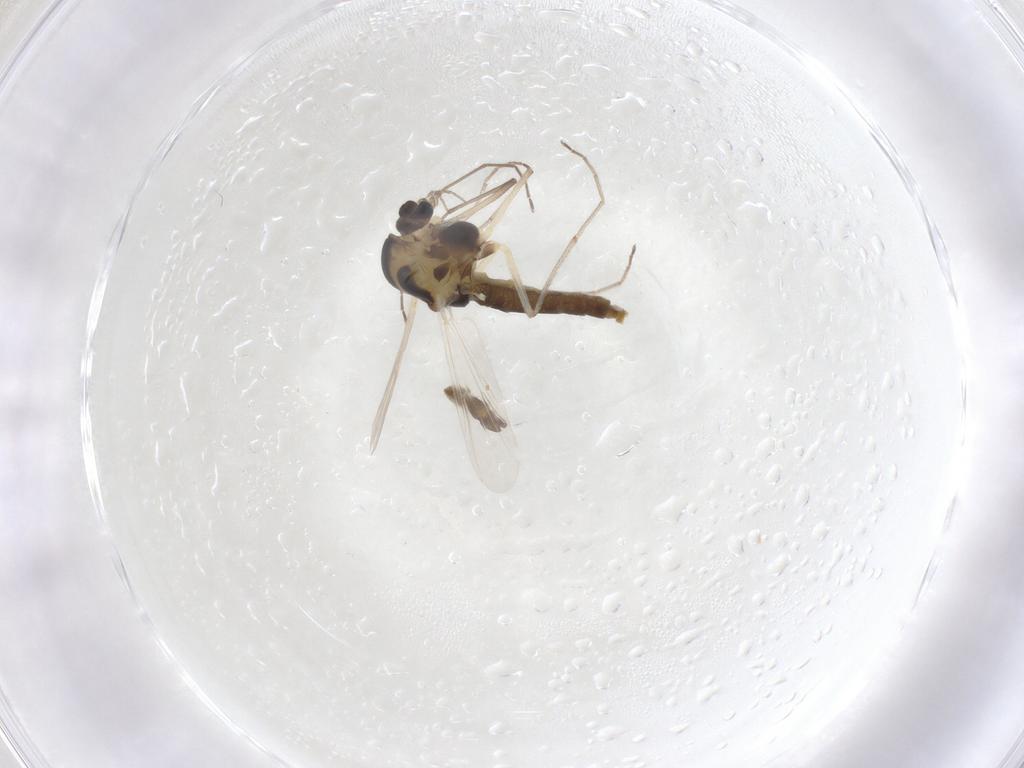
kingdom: Animalia
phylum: Arthropoda
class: Insecta
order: Diptera
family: Chironomidae
